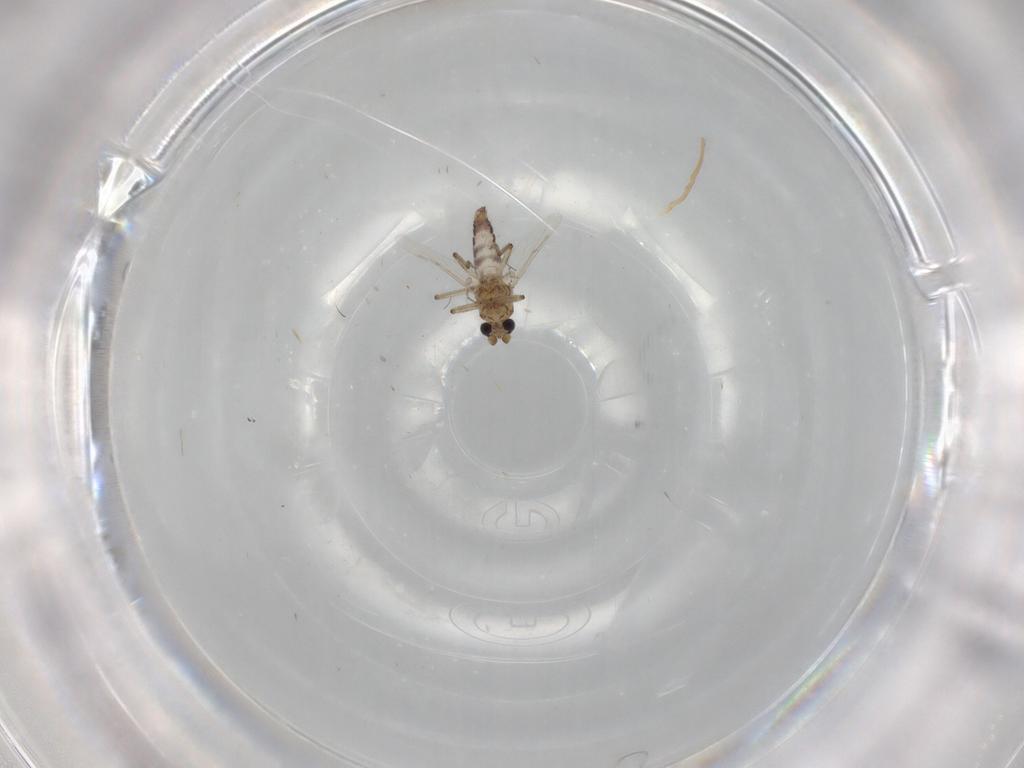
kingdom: Animalia
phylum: Arthropoda
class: Insecta
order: Diptera
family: Ceratopogonidae
